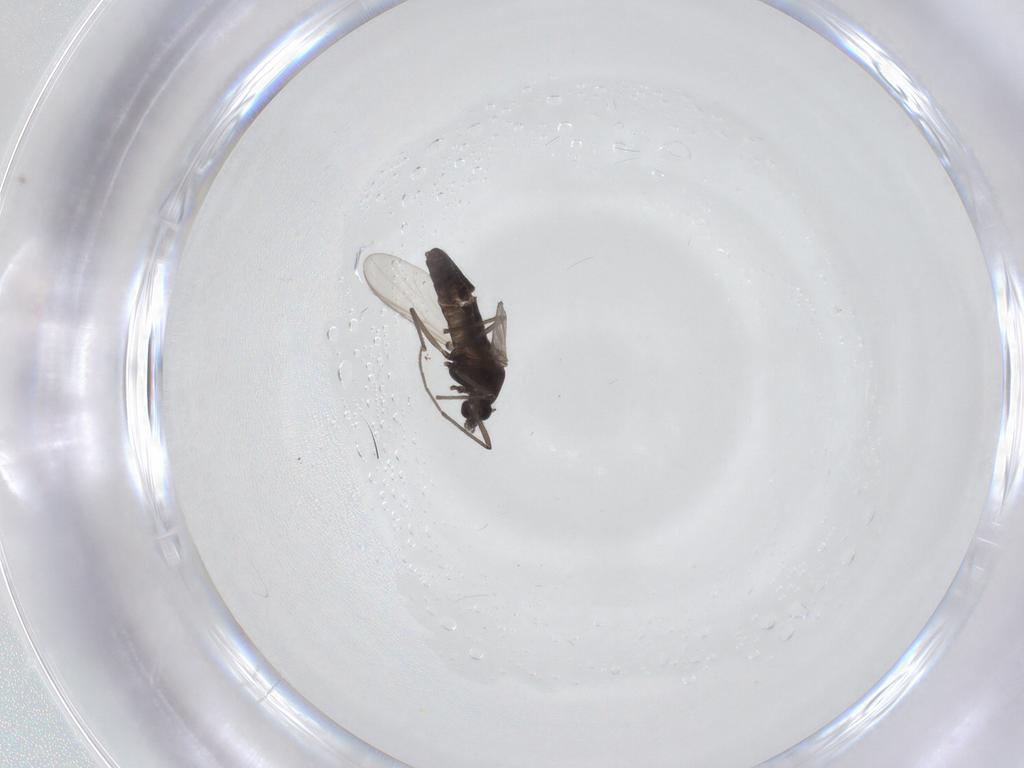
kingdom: Animalia
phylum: Arthropoda
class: Insecta
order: Diptera
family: Chironomidae
